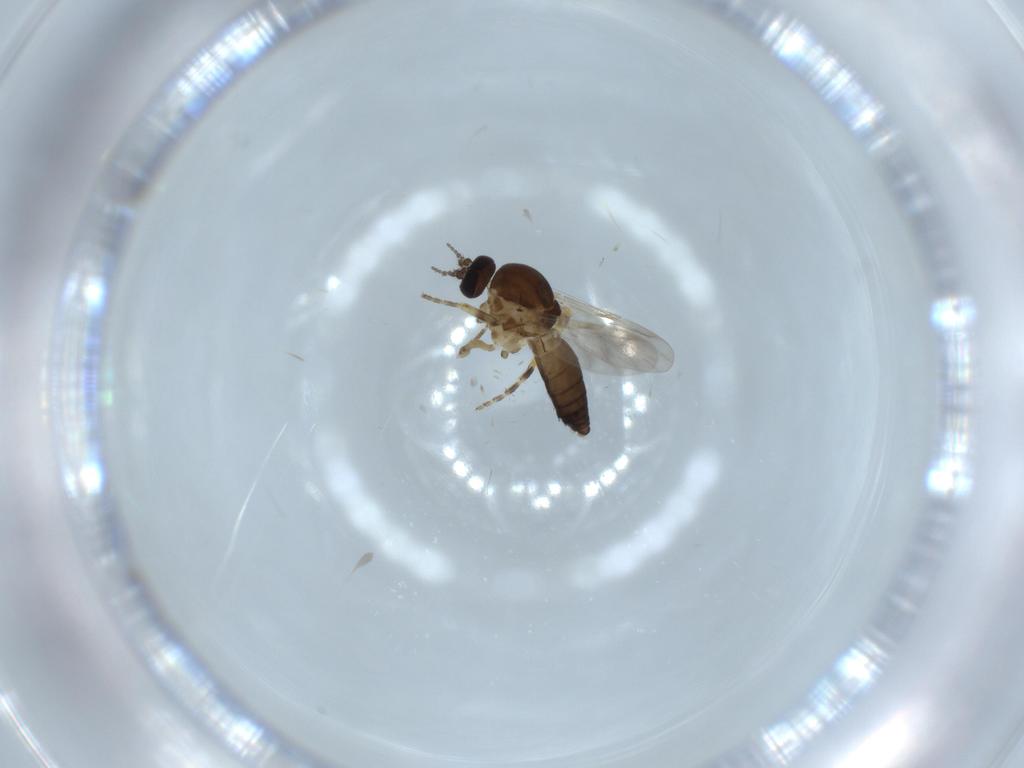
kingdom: Animalia
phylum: Arthropoda
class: Insecta
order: Diptera
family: Ceratopogonidae
